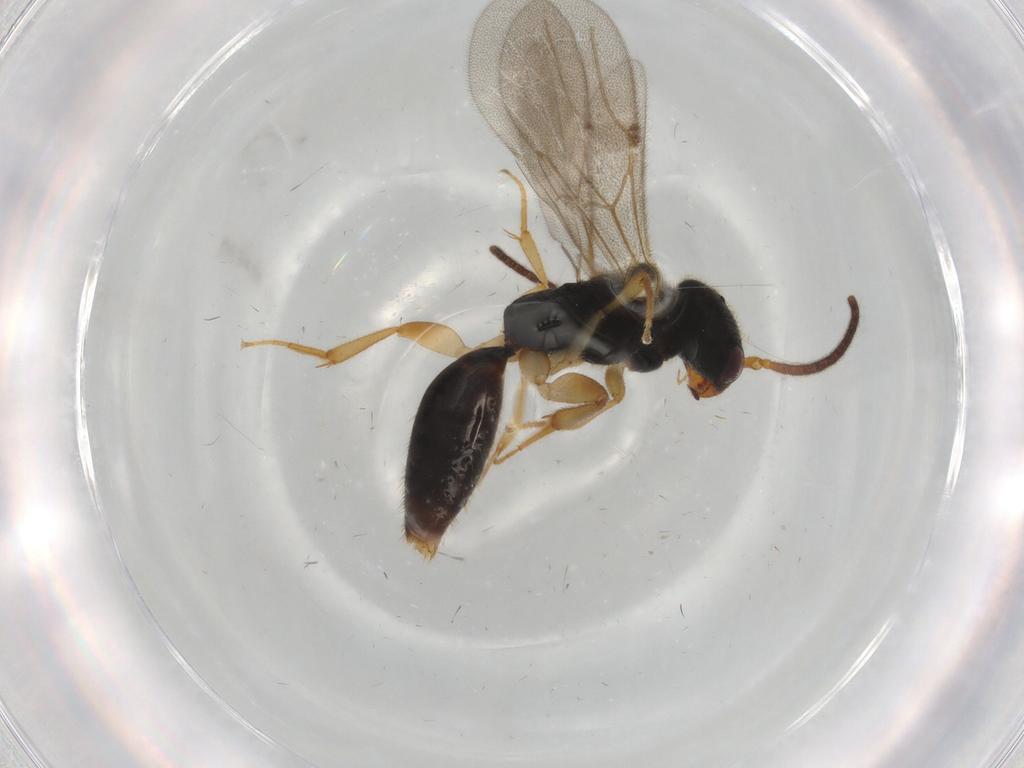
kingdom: Animalia
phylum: Arthropoda
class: Insecta
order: Hymenoptera
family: Bethylidae
